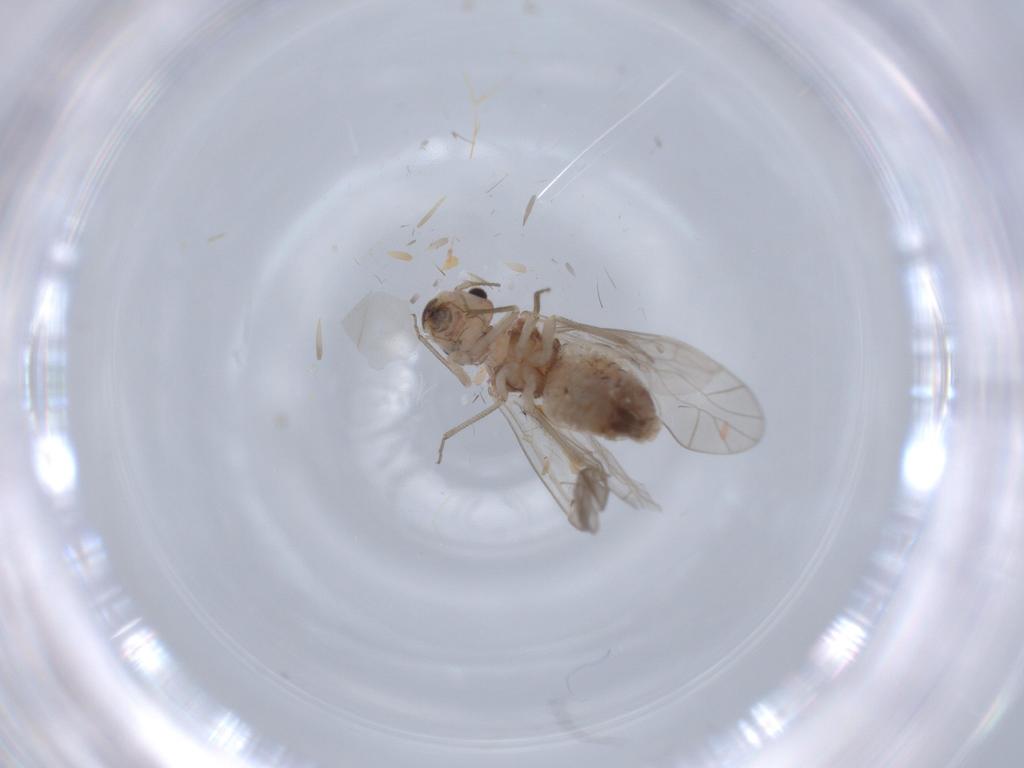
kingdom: Animalia
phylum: Arthropoda
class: Insecta
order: Psocodea
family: Caeciliusidae
